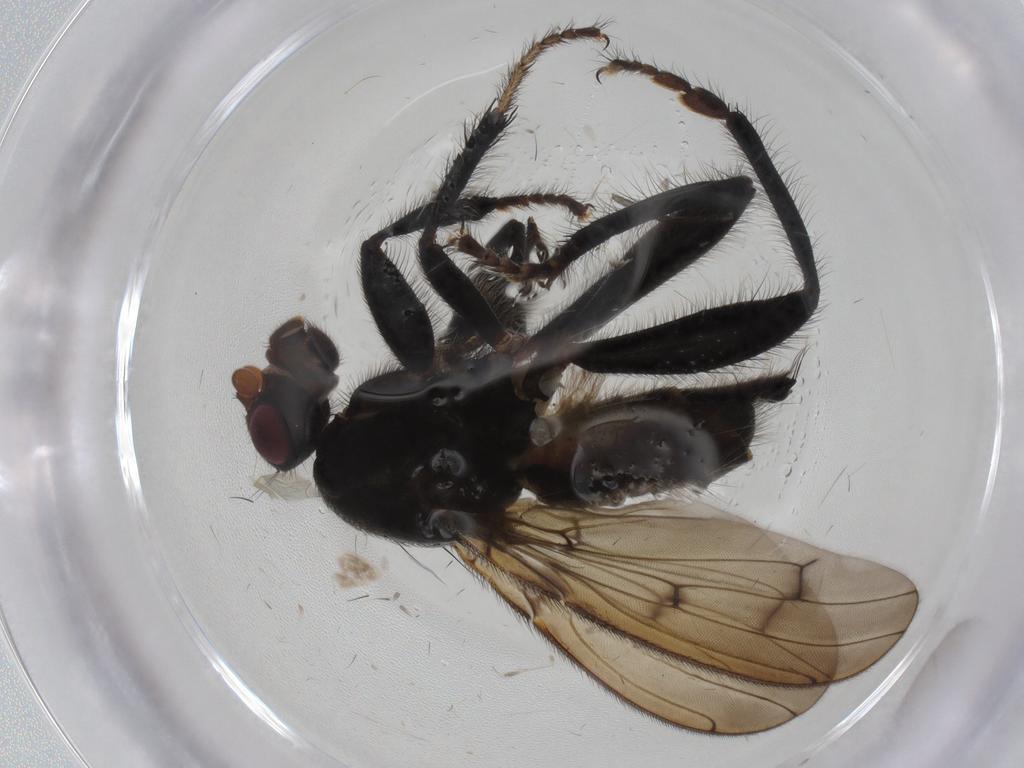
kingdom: Animalia
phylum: Arthropoda
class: Insecta
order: Diptera
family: Sphaeroceridae
